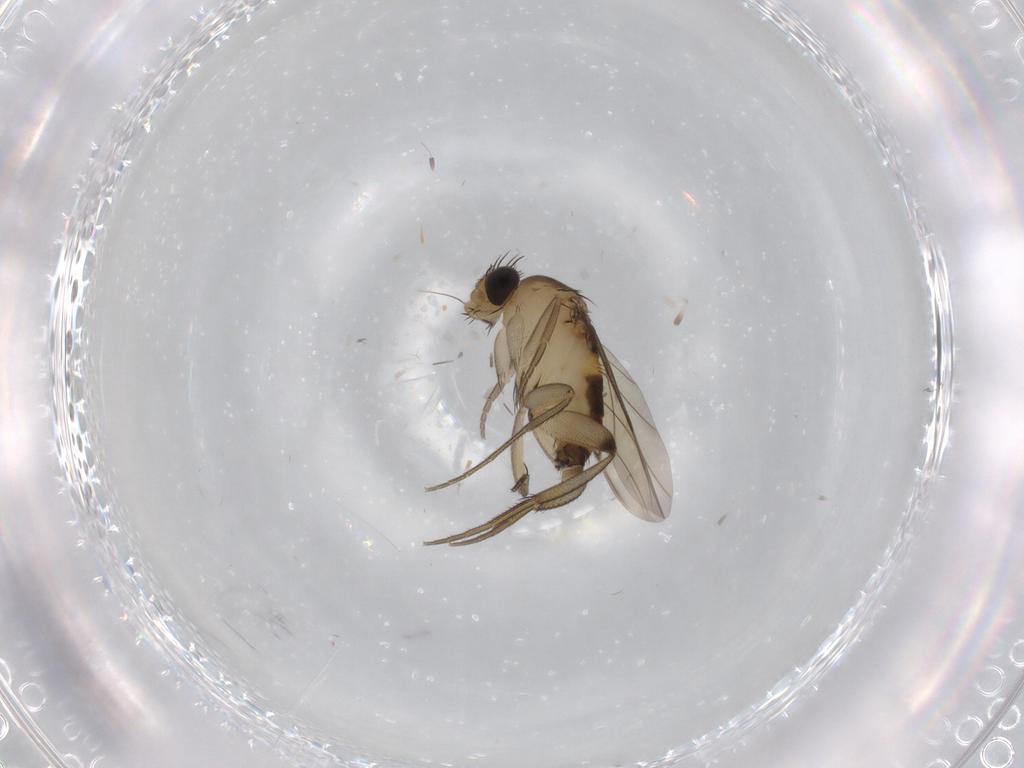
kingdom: Animalia
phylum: Arthropoda
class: Insecta
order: Diptera
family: Phoridae
